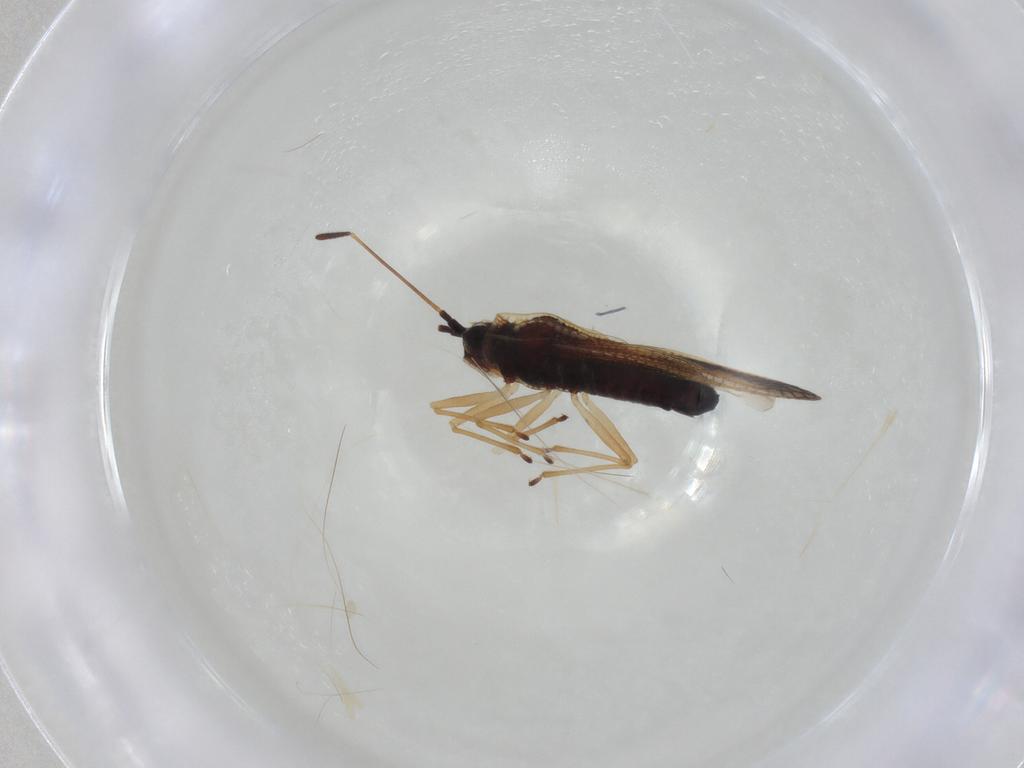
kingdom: Animalia
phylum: Arthropoda
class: Insecta
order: Hemiptera
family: Tingidae
